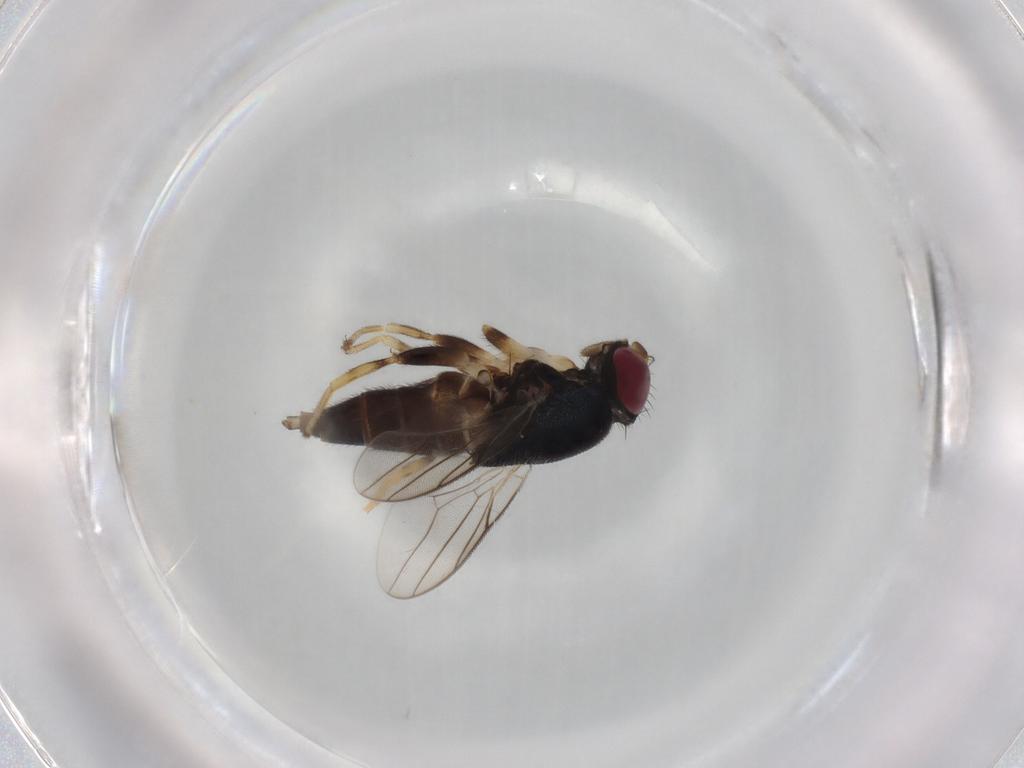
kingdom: Animalia
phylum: Arthropoda
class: Insecta
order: Diptera
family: Chloropidae
